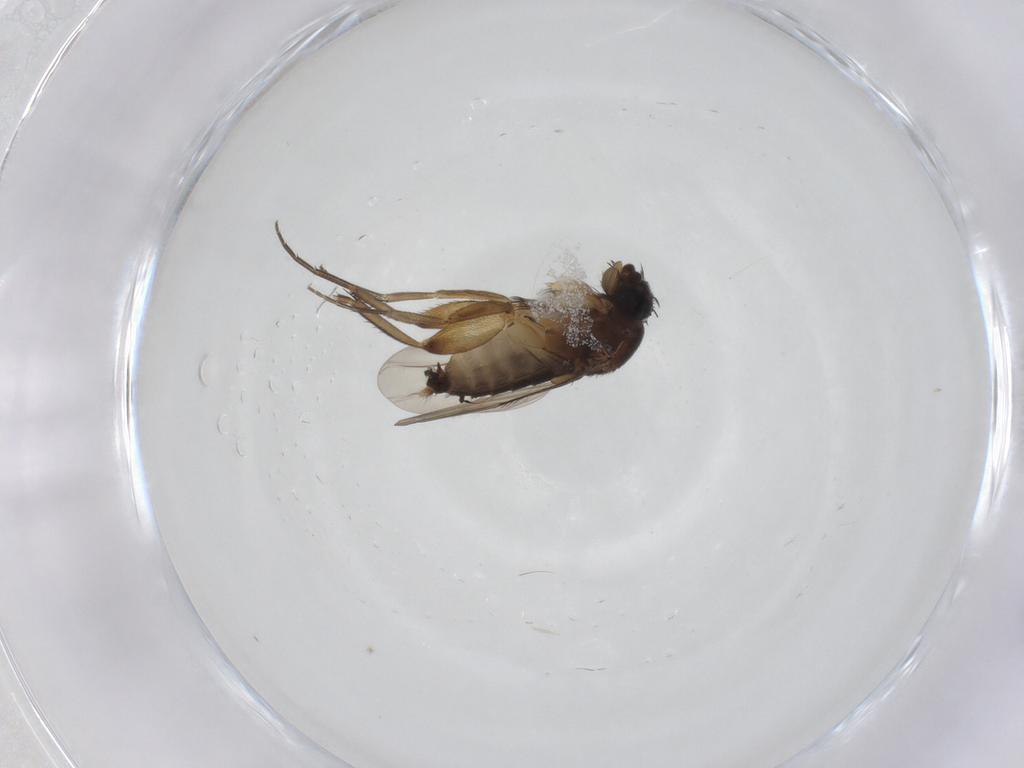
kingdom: Animalia
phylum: Arthropoda
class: Insecta
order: Diptera
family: Phoridae
